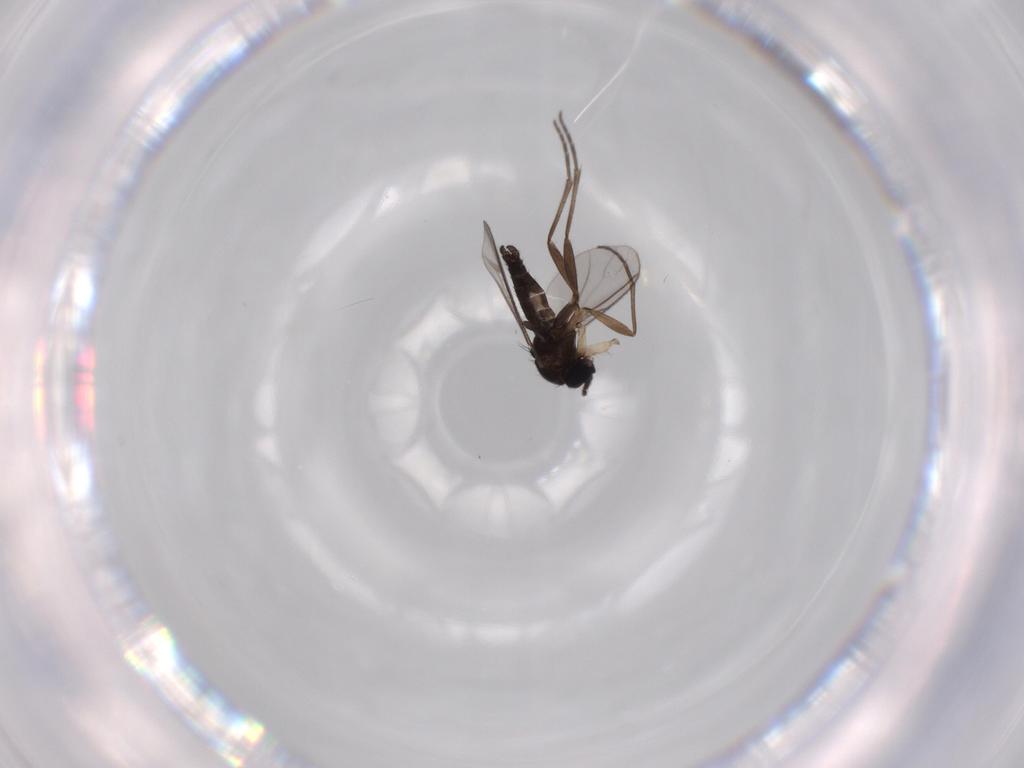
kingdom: Animalia
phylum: Arthropoda
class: Insecta
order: Diptera
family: Sciaridae
